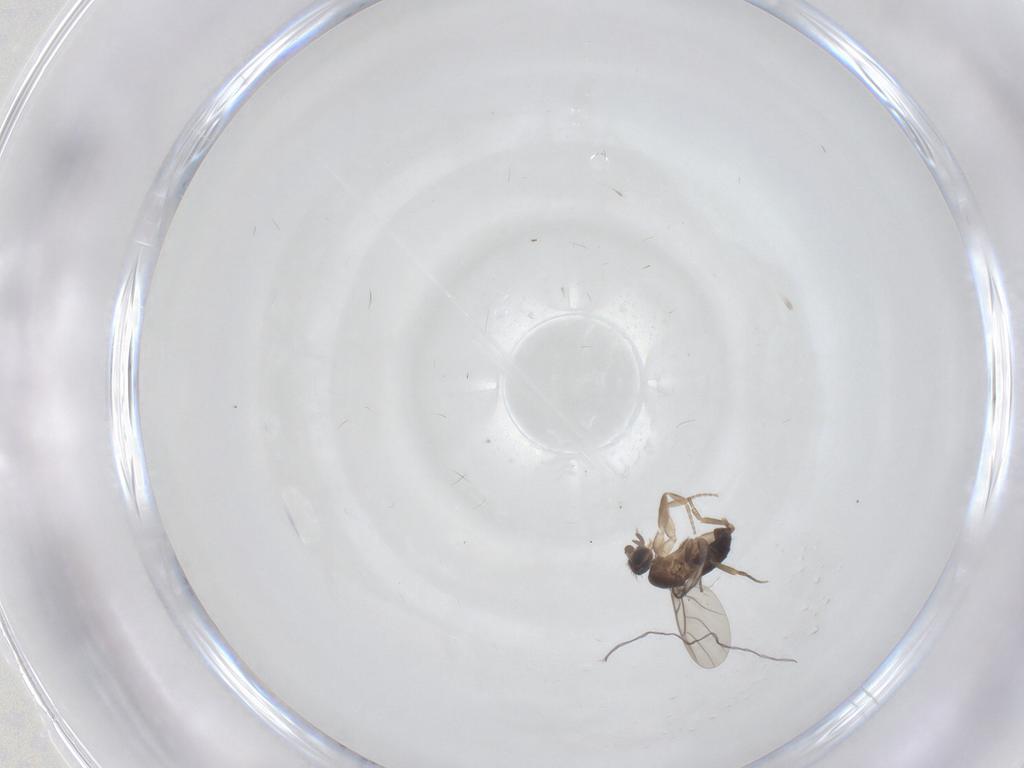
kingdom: Animalia
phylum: Arthropoda
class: Insecta
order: Diptera
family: Phoridae
